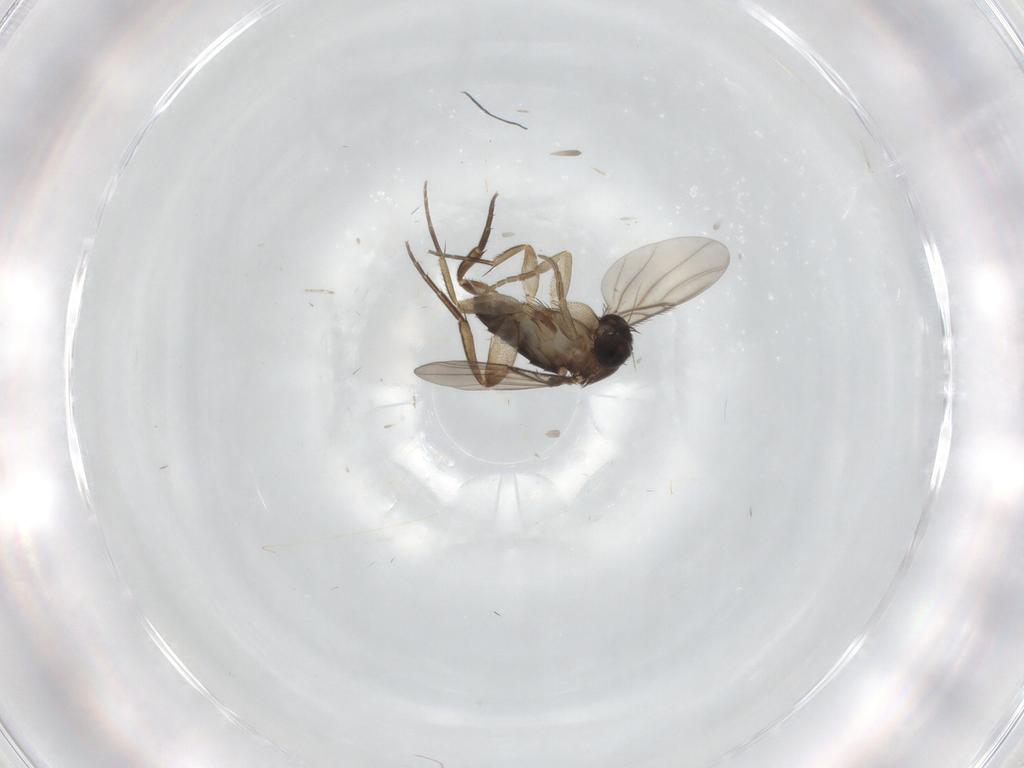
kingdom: Animalia
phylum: Arthropoda
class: Insecta
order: Diptera
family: Phoridae
